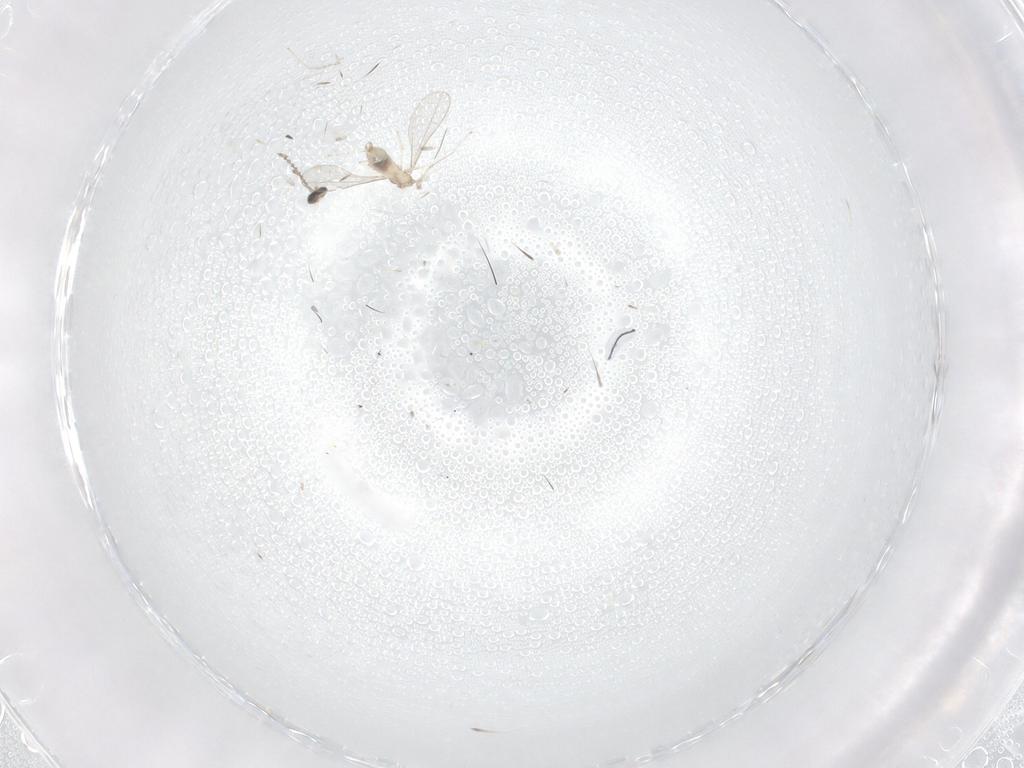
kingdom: Animalia
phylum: Arthropoda
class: Insecta
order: Diptera
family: Cecidomyiidae
